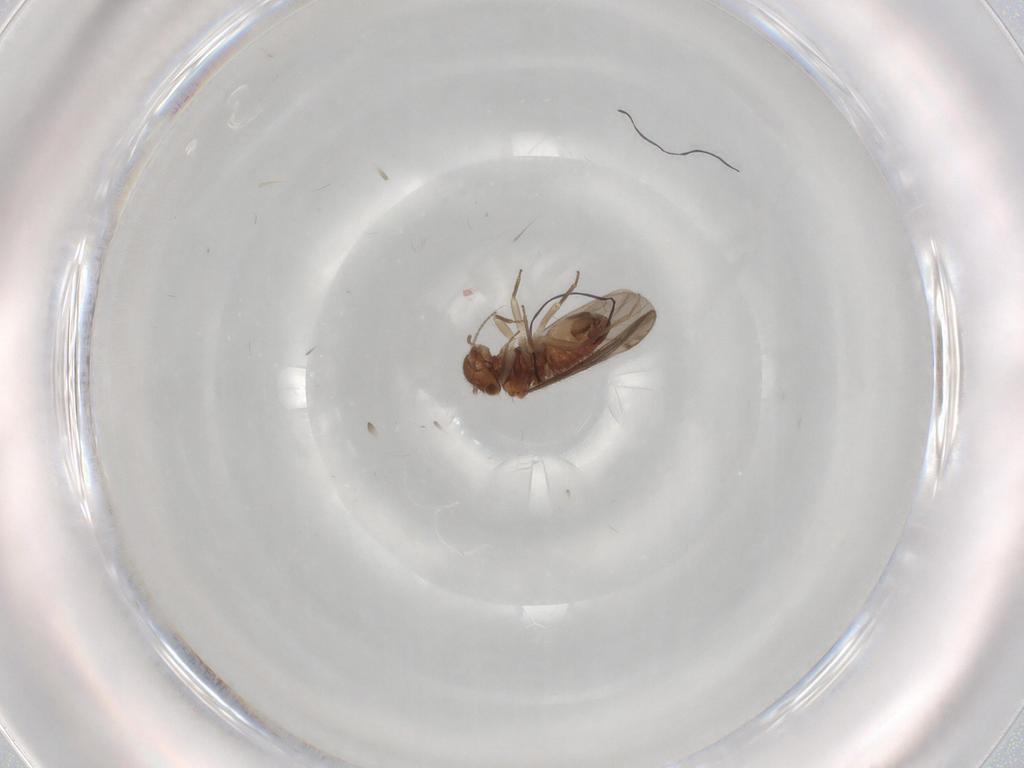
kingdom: Animalia
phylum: Arthropoda
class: Insecta
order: Psocodea
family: Ectopsocidae
